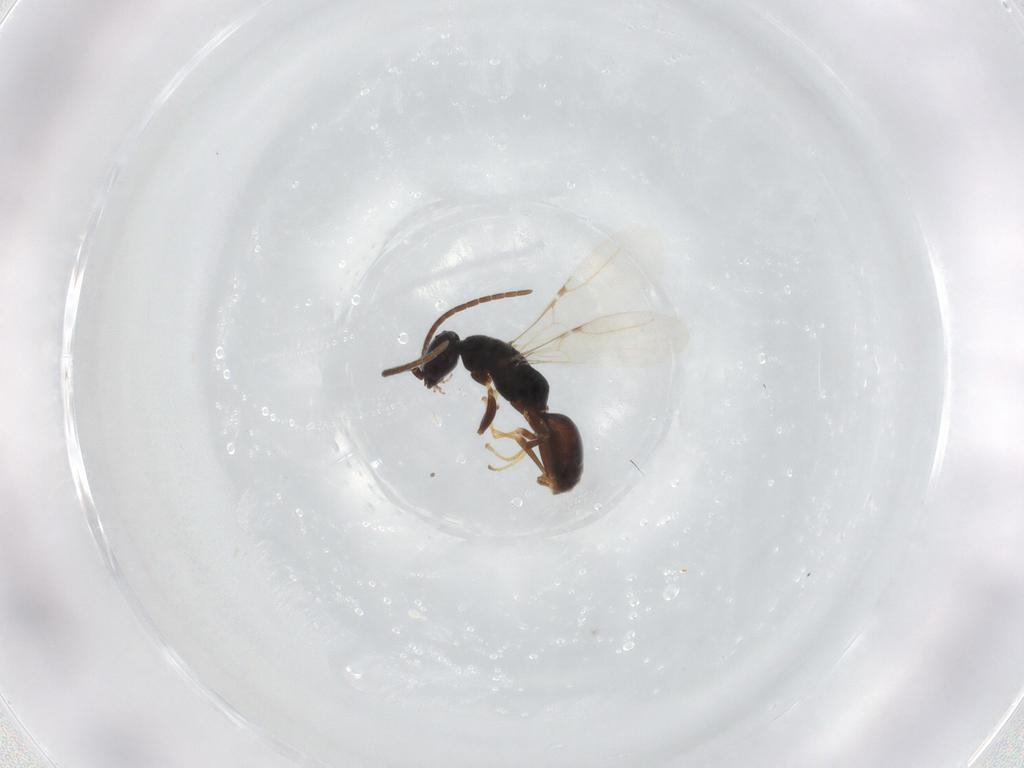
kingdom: Animalia
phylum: Arthropoda
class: Insecta
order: Hymenoptera
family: Bethylidae
